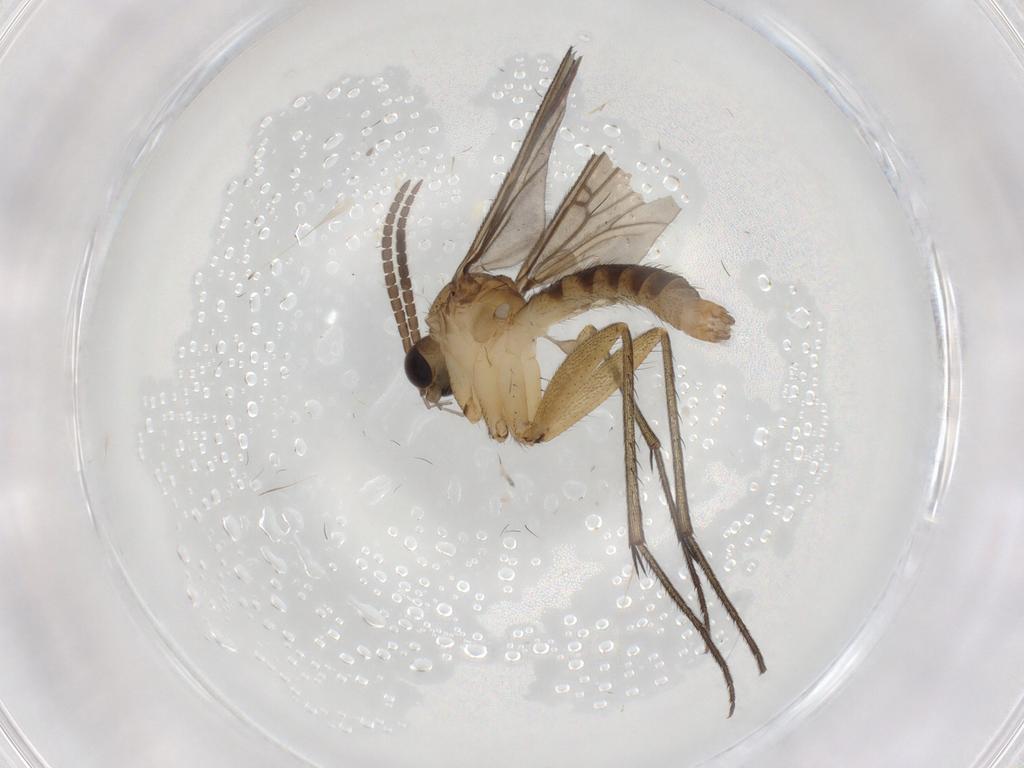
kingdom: Animalia
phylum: Arthropoda
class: Insecta
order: Diptera
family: Mycetophilidae
